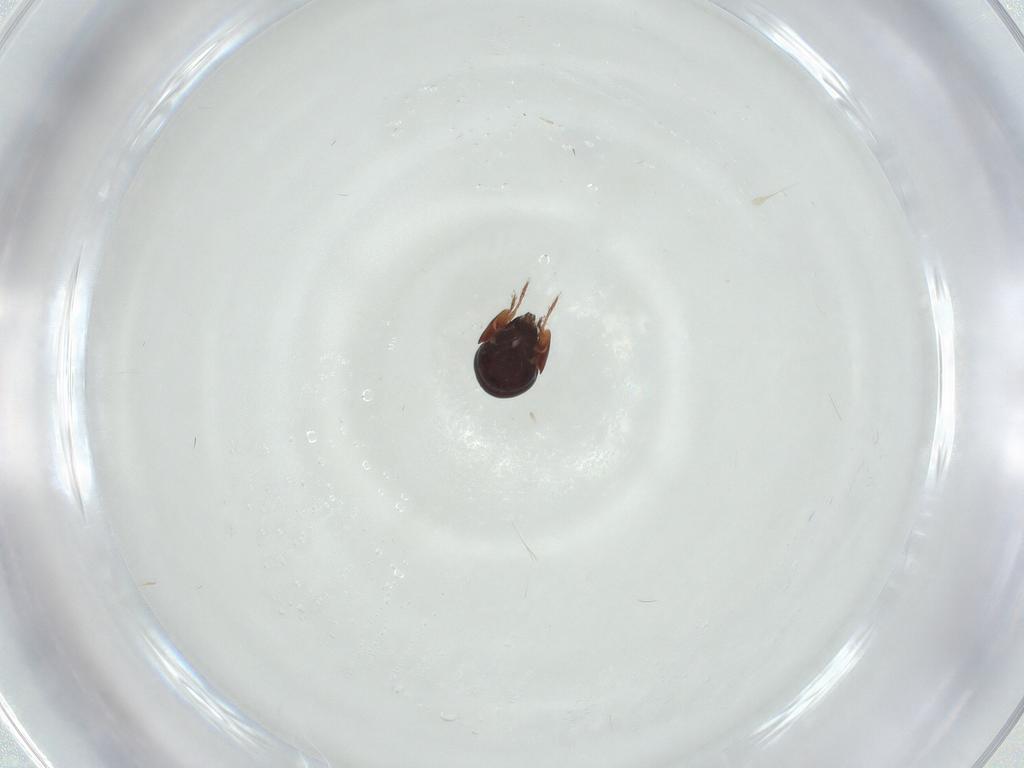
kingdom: Animalia
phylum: Arthropoda
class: Arachnida
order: Sarcoptiformes
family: Galumnidae
